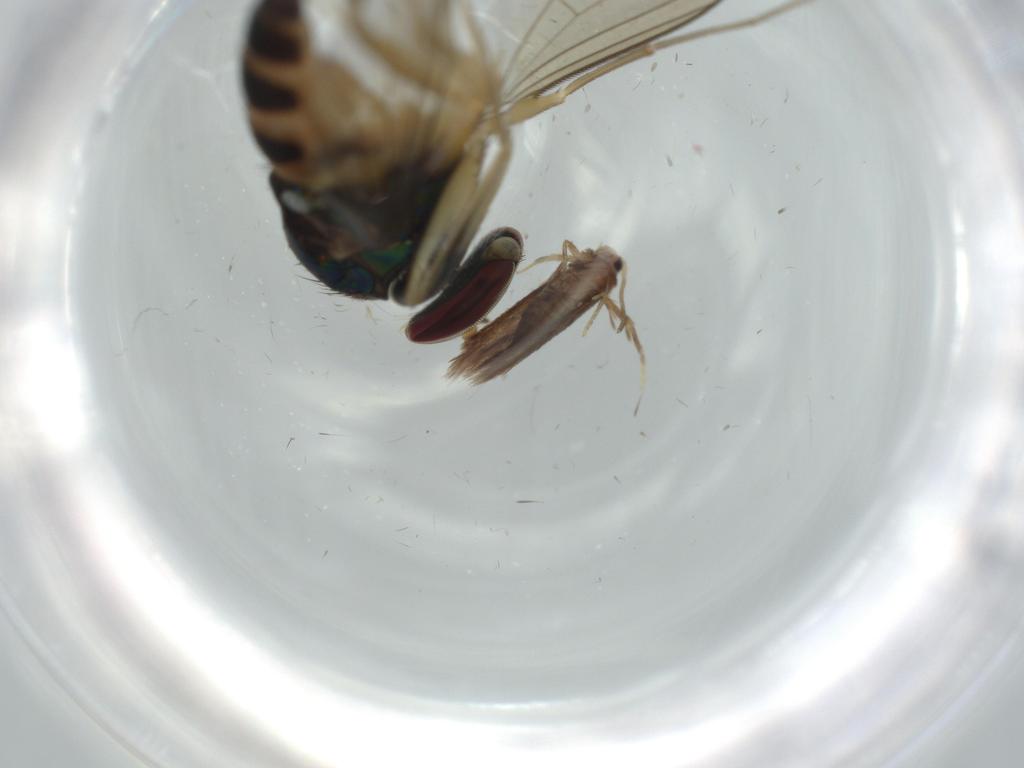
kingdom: Animalia
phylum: Arthropoda
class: Insecta
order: Diptera
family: Dolichopodidae
